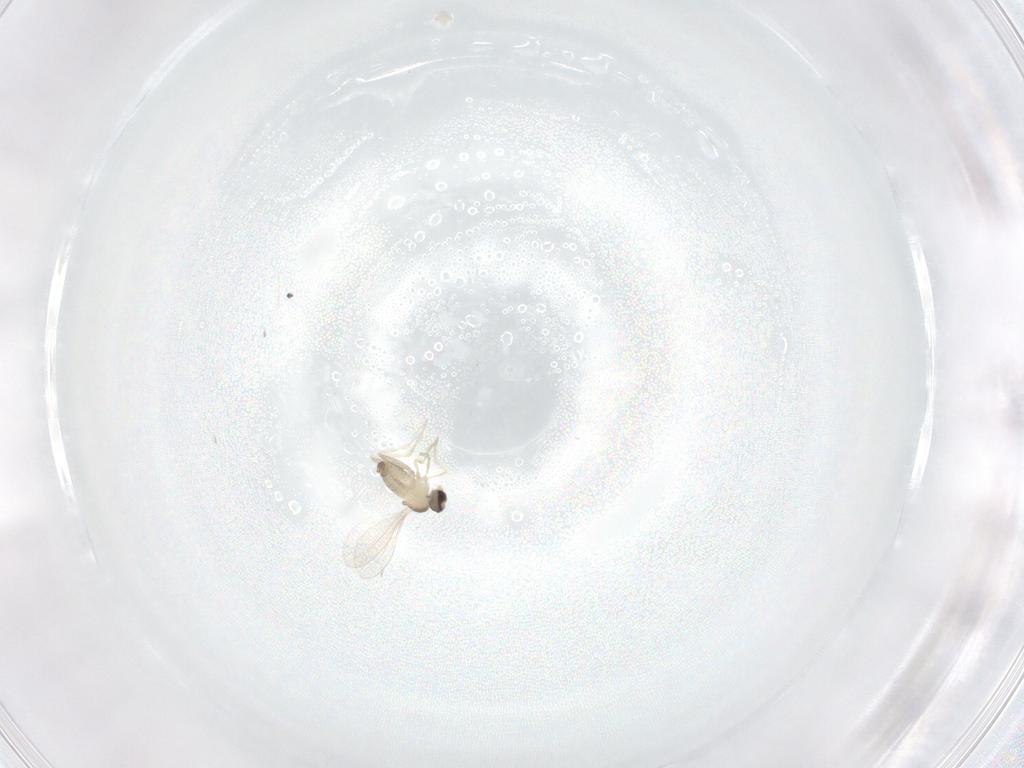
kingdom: Animalia
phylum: Arthropoda
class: Insecta
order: Diptera
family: Cecidomyiidae
